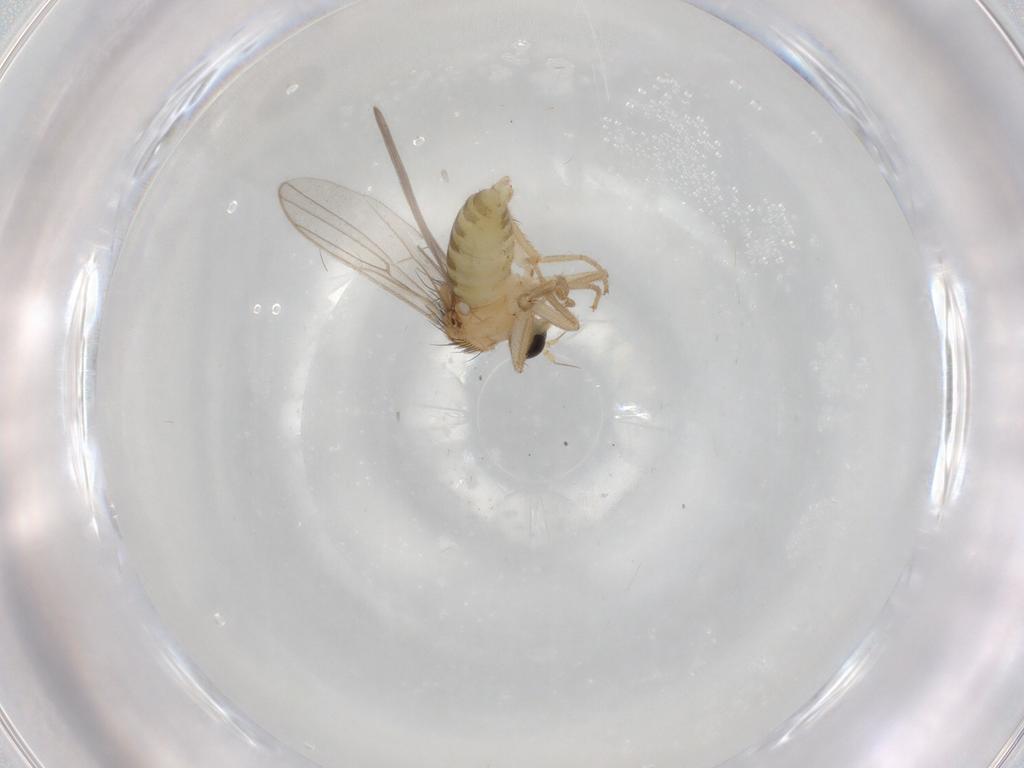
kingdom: Animalia
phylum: Arthropoda
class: Insecta
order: Diptera
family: Hybotidae
